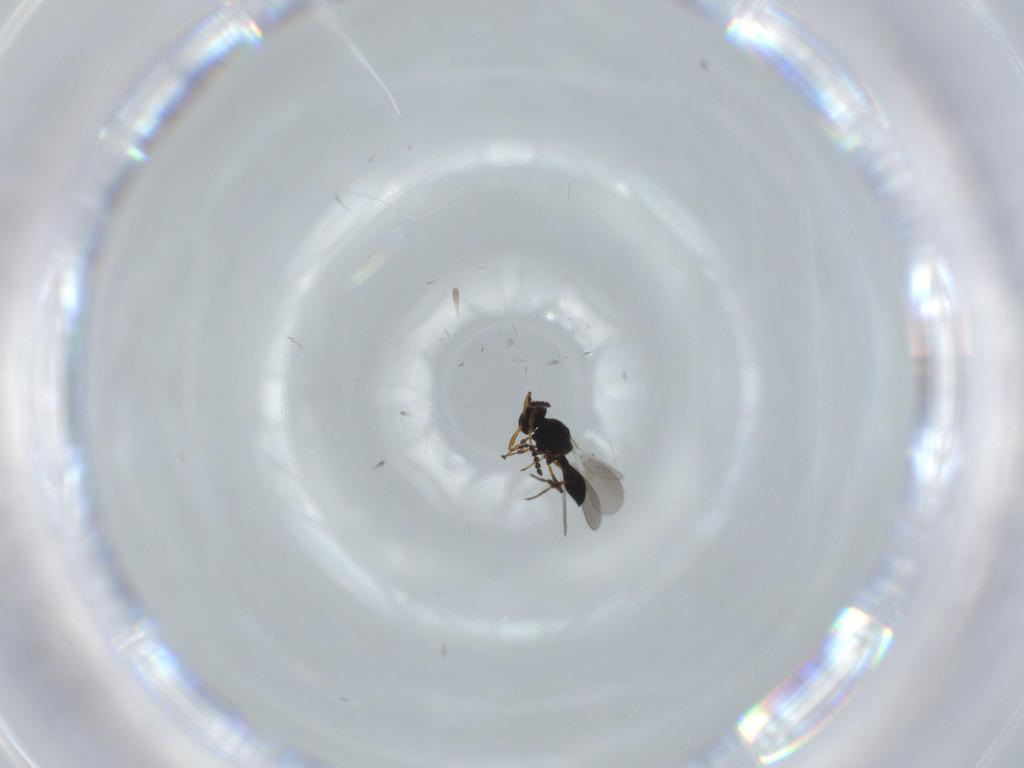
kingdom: Animalia
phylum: Arthropoda
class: Insecta
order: Hymenoptera
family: Platygastridae
